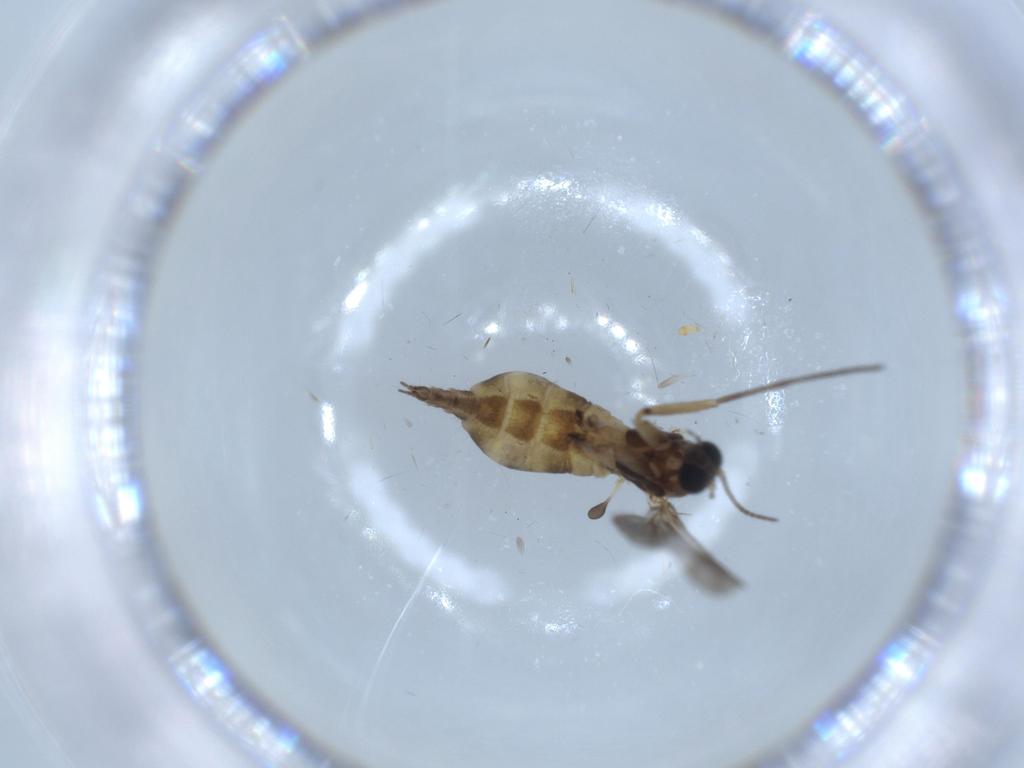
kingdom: Animalia
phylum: Arthropoda
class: Insecta
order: Diptera
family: Sciaridae
